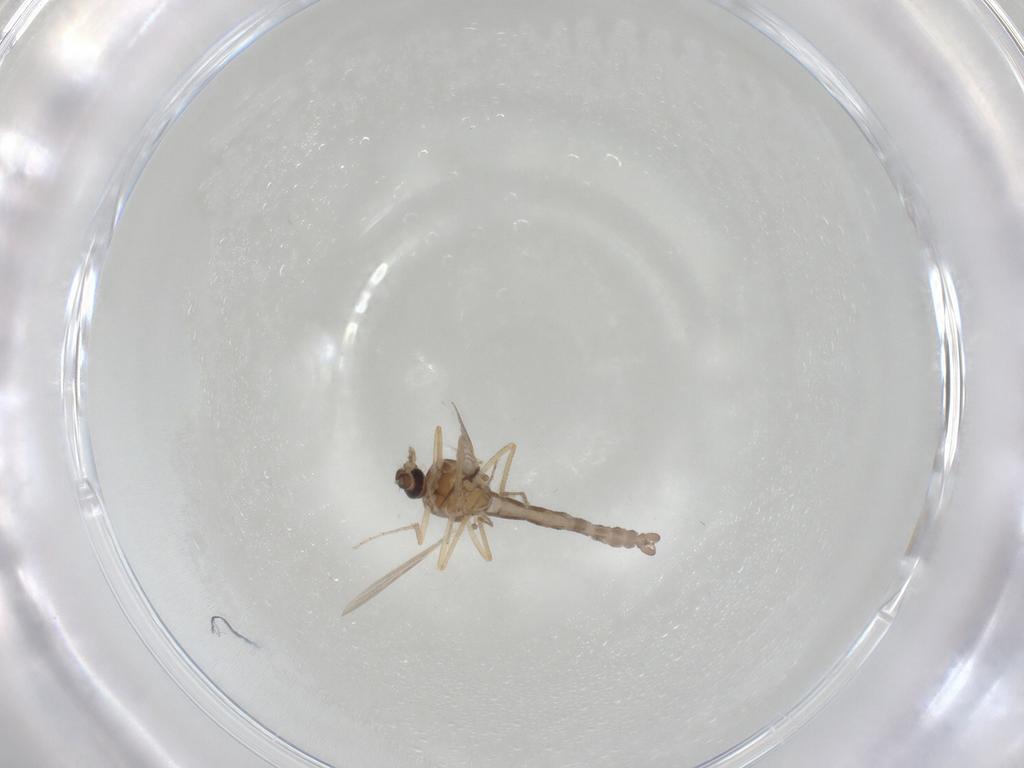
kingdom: Animalia
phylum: Arthropoda
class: Insecta
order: Diptera
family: Ceratopogonidae
